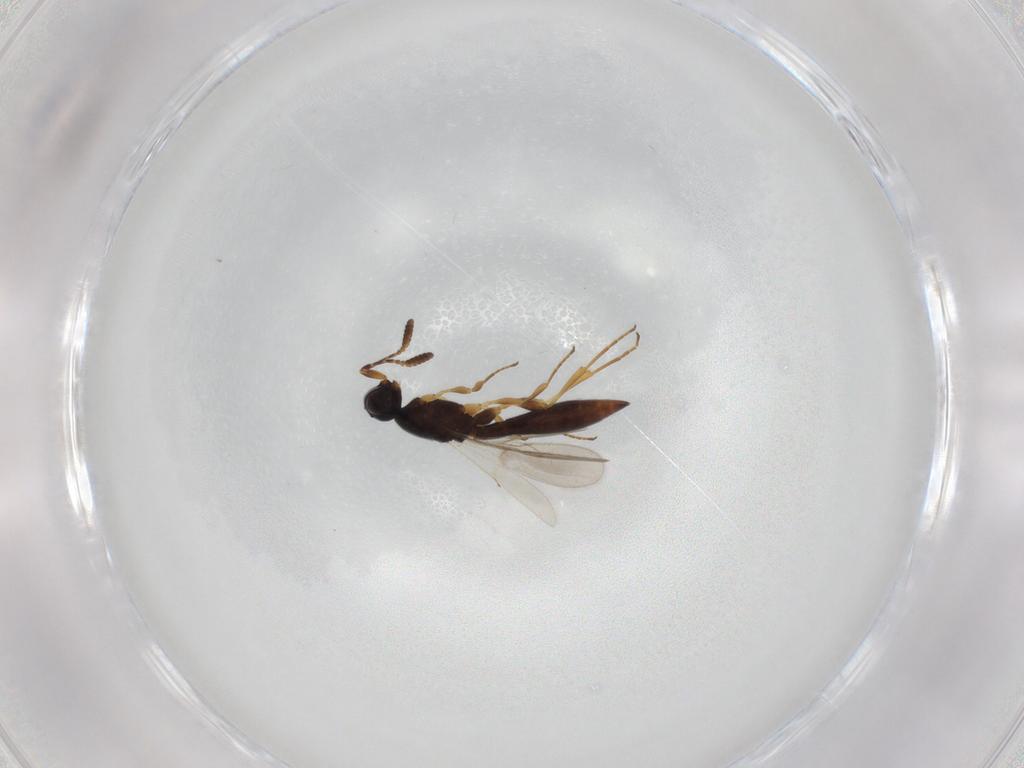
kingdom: Animalia
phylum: Arthropoda
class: Insecta
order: Hymenoptera
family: Scelionidae
